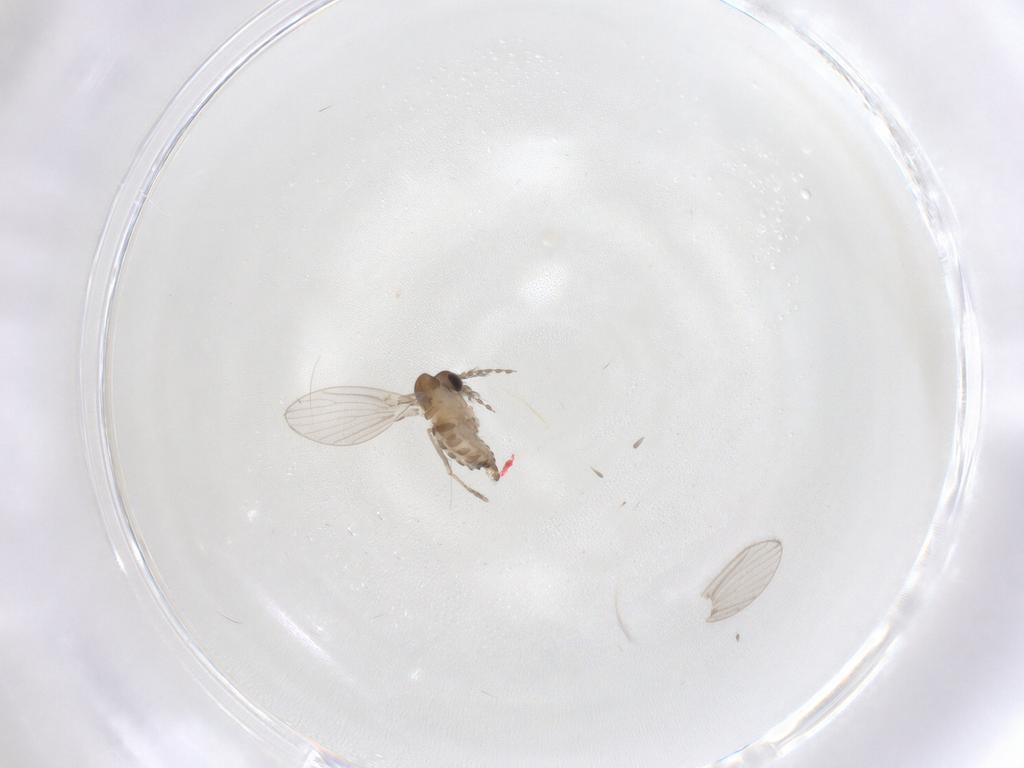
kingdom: Animalia
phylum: Arthropoda
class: Insecta
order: Diptera
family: Psychodidae
